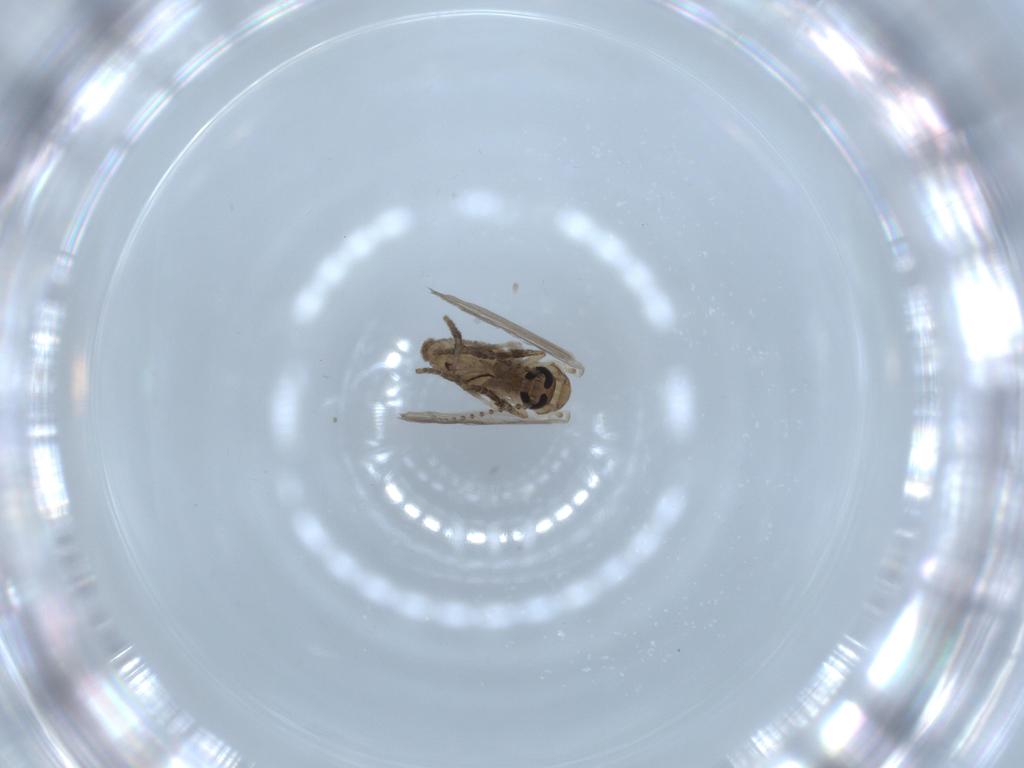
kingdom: Animalia
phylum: Arthropoda
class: Insecta
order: Diptera
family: Psychodidae
